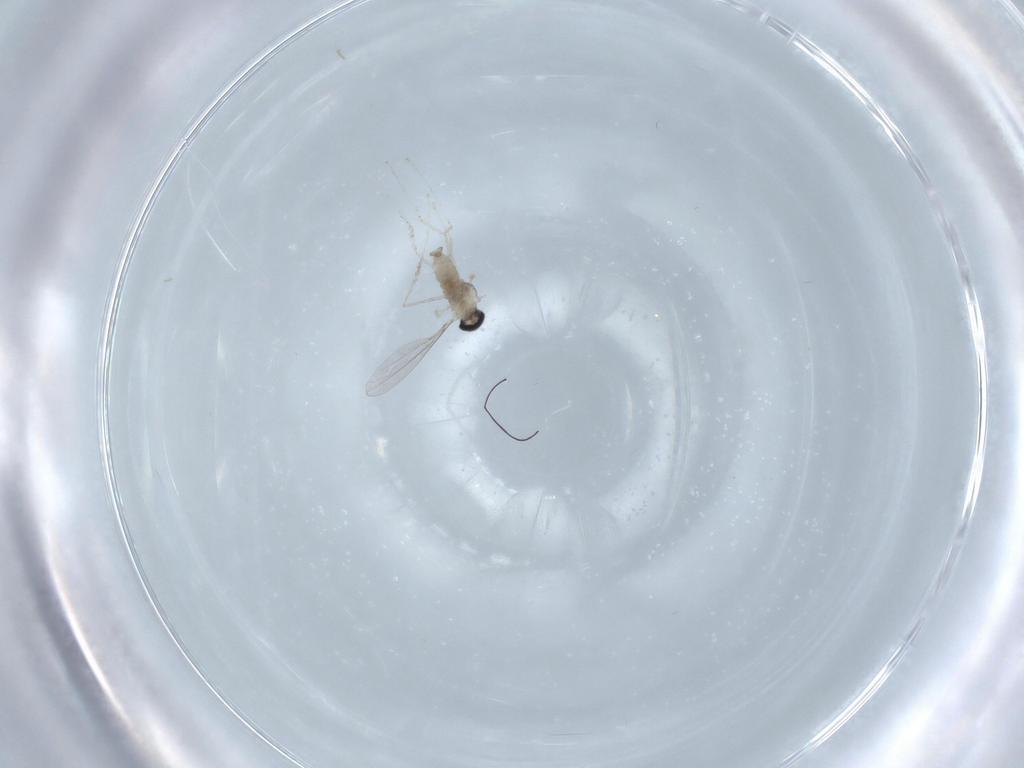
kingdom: Animalia
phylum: Arthropoda
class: Insecta
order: Diptera
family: Cecidomyiidae
